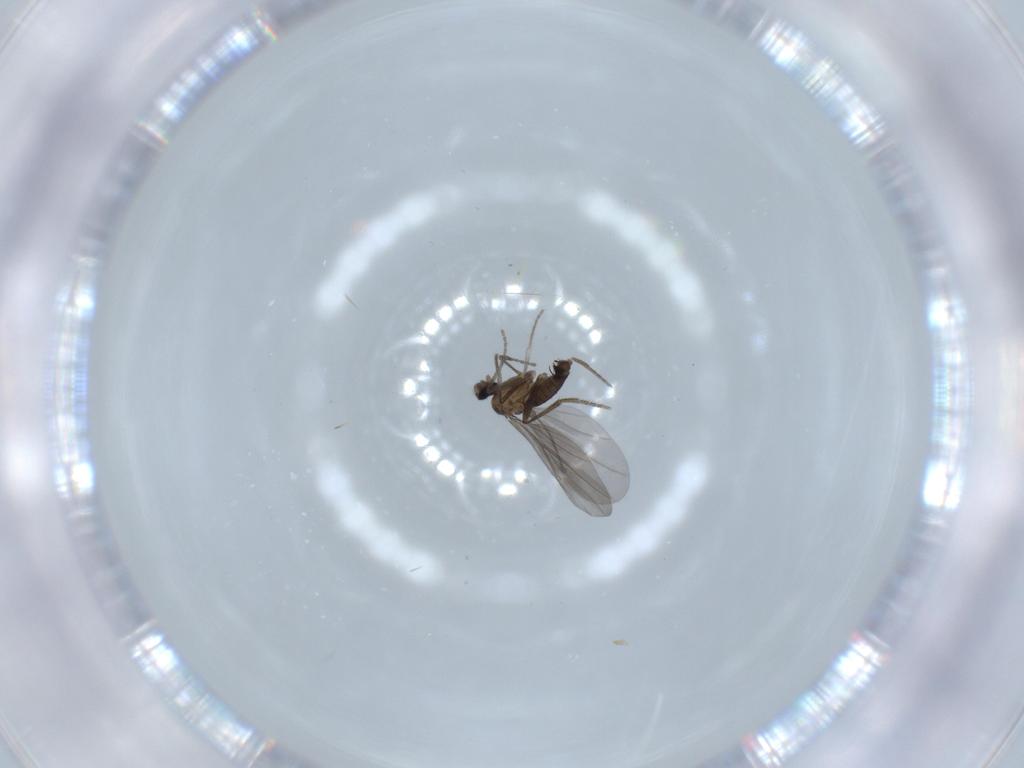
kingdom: Animalia
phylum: Arthropoda
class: Insecta
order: Diptera
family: Phoridae
